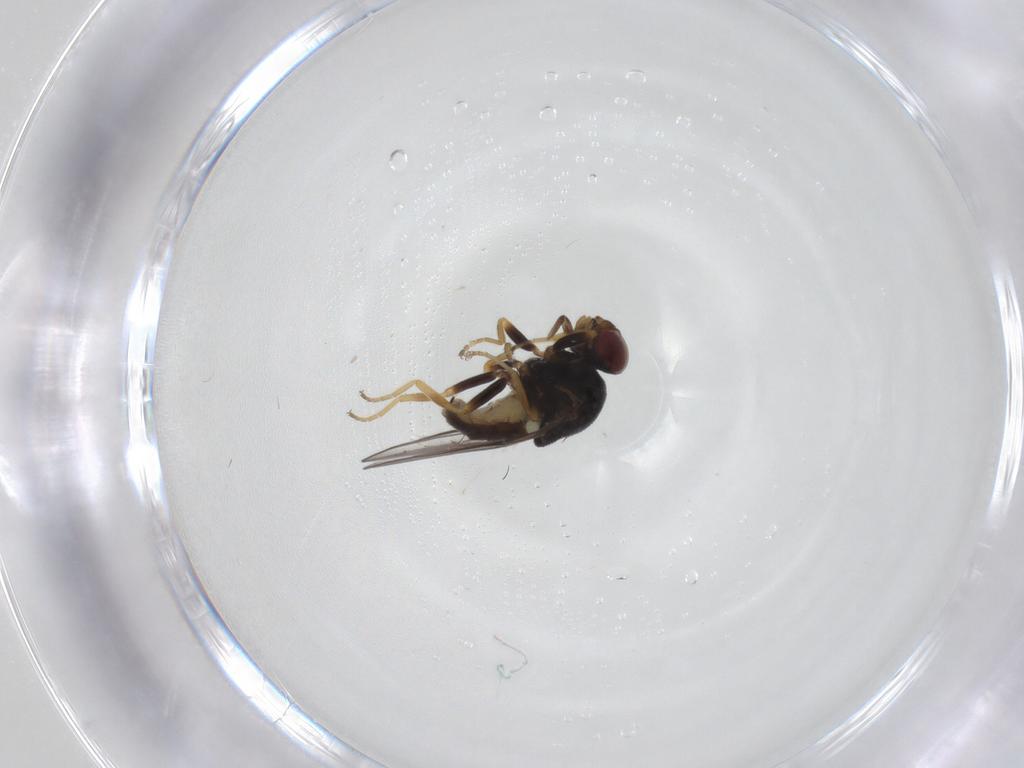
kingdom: Animalia
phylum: Arthropoda
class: Insecta
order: Diptera
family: Chloropidae
